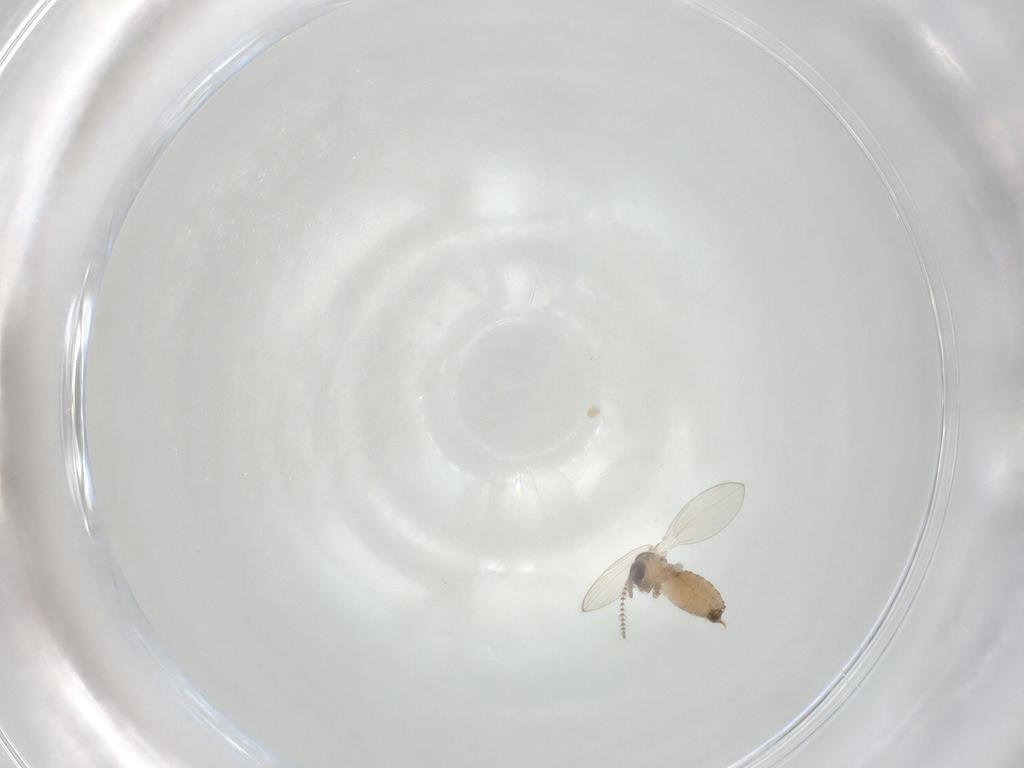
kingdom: Animalia
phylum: Arthropoda
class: Insecta
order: Diptera
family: Psychodidae
